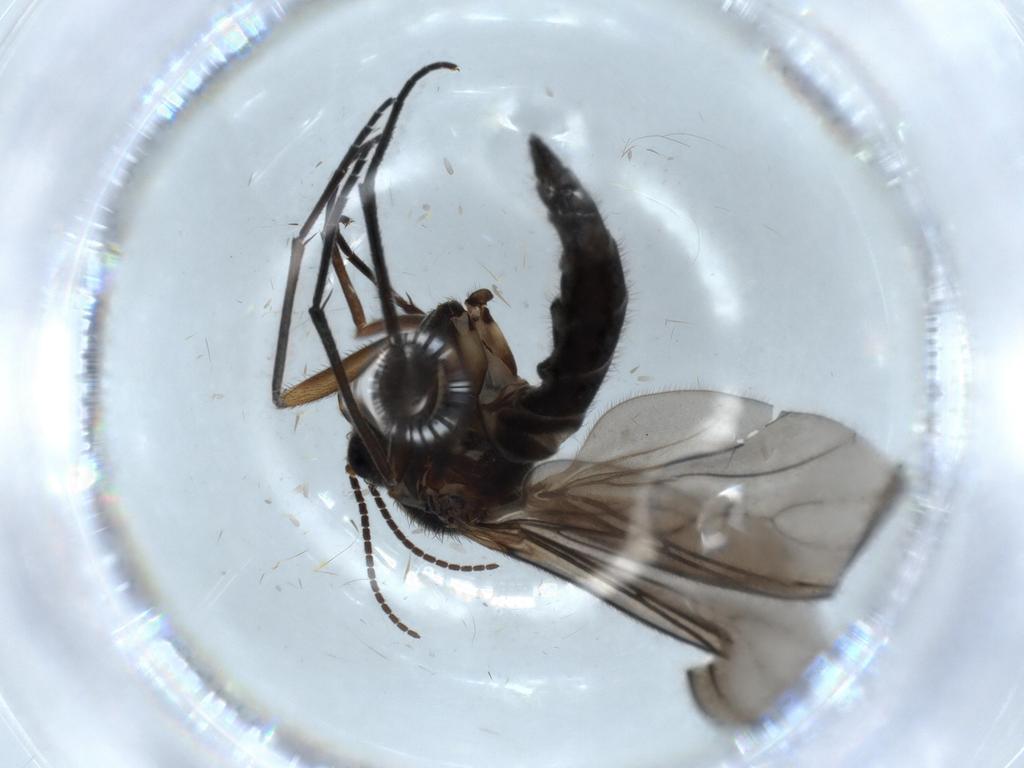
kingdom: Animalia
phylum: Arthropoda
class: Insecta
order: Diptera
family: Sciaridae
